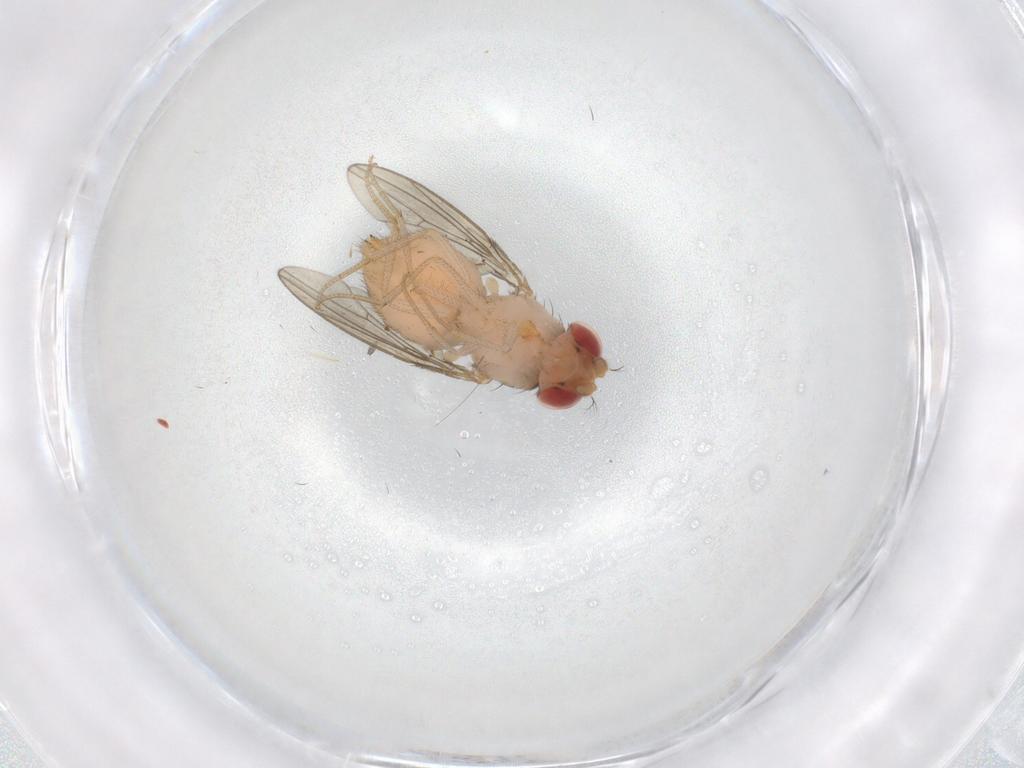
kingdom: Animalia
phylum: Arthropoda
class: Insecta
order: Diptera
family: Drosophilidae
